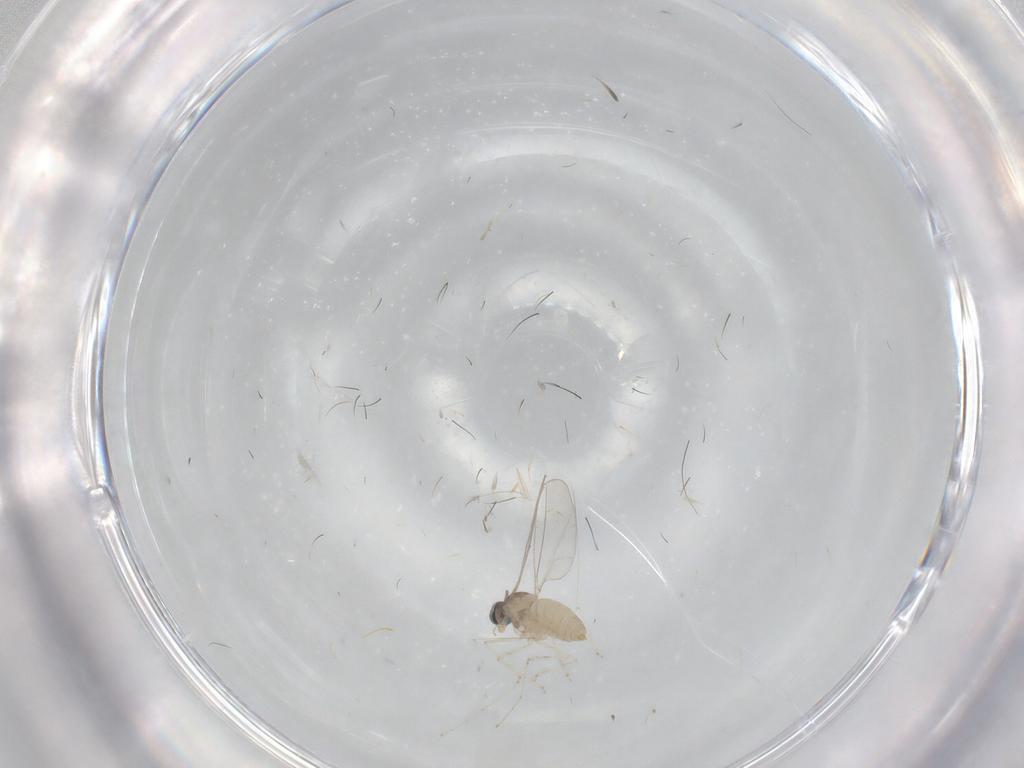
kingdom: Animalia
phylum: Arthropoda
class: Insecta
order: Diptera
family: Cecidomyiidae
